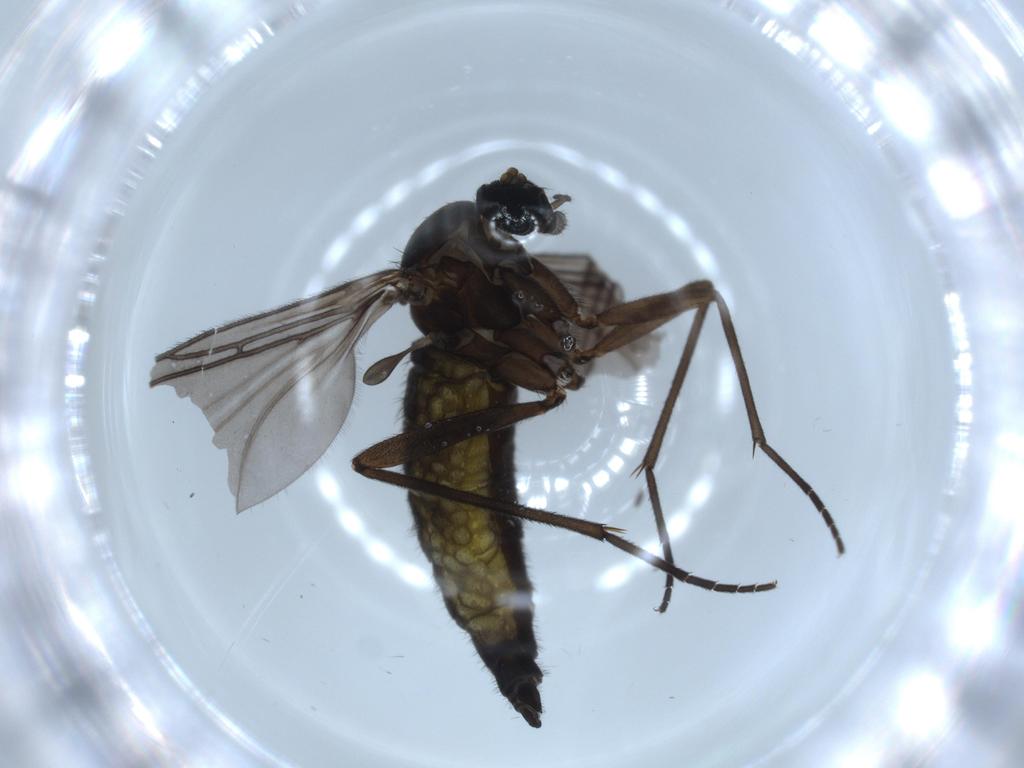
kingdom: Animalia
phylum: Arthropoda
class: Insecta
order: Diptera
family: Sciaridae
